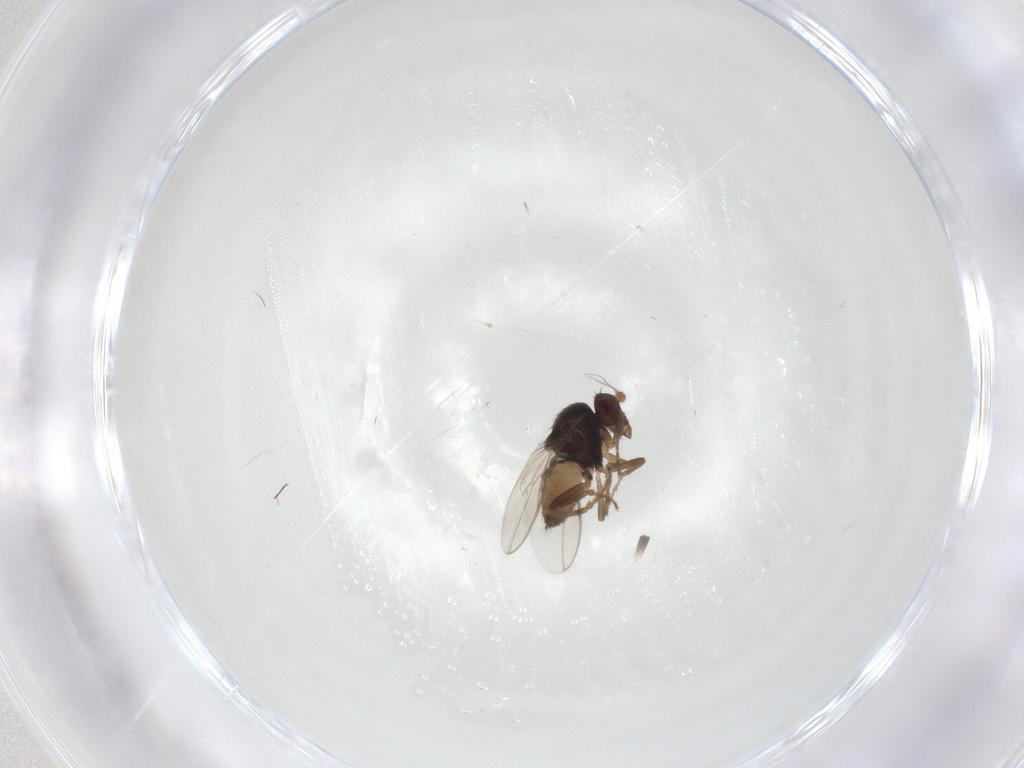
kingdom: Animalia
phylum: Arthropoda
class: Insecta
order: Diptera
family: Sphaeroceridae
